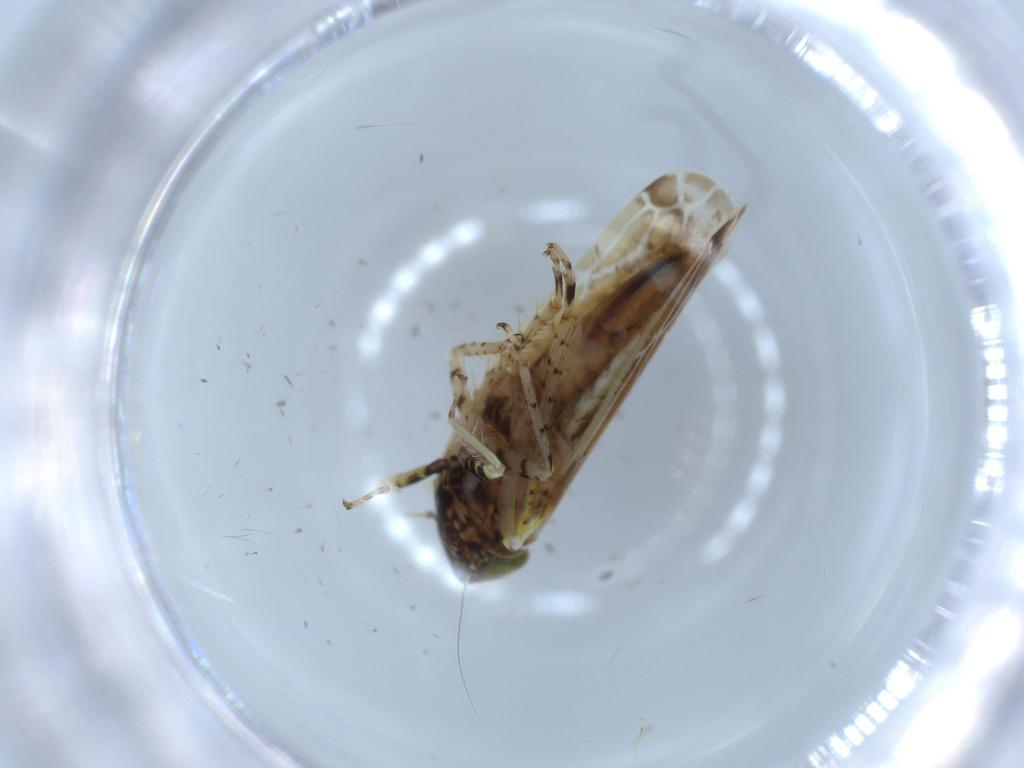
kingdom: Animalia
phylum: Arthropoda
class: Insecta
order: Hemiptera
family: Cicadellidae
